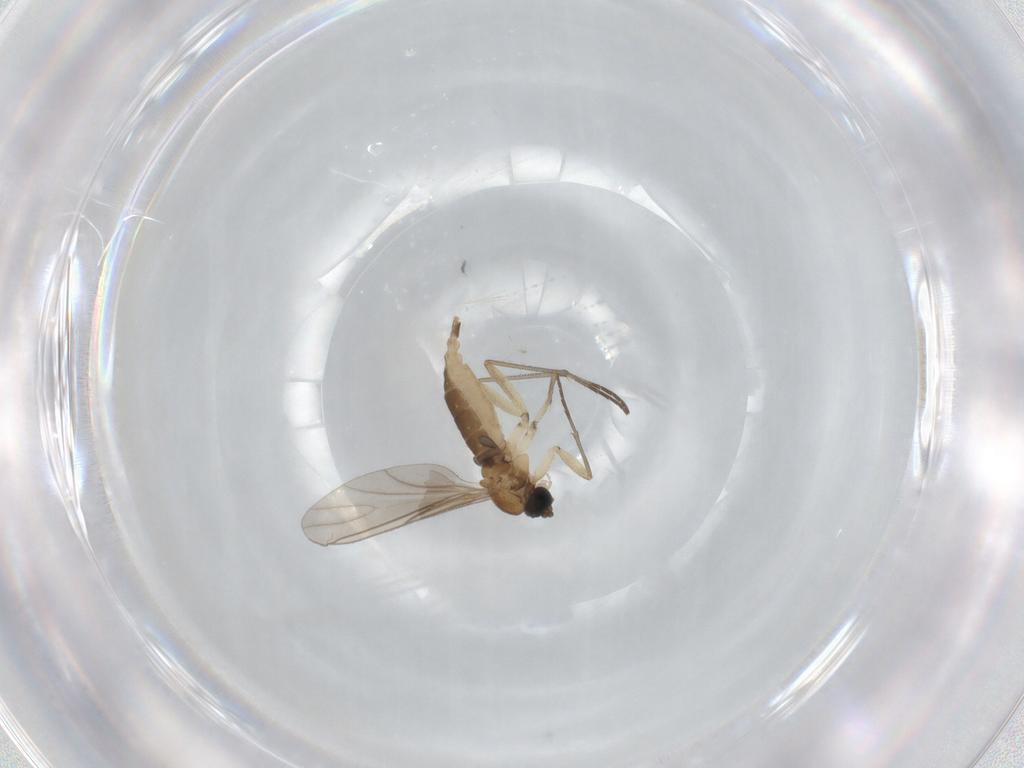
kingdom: Animalia
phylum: Arthropoda
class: Insecta
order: Diptera
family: Sciaridae
